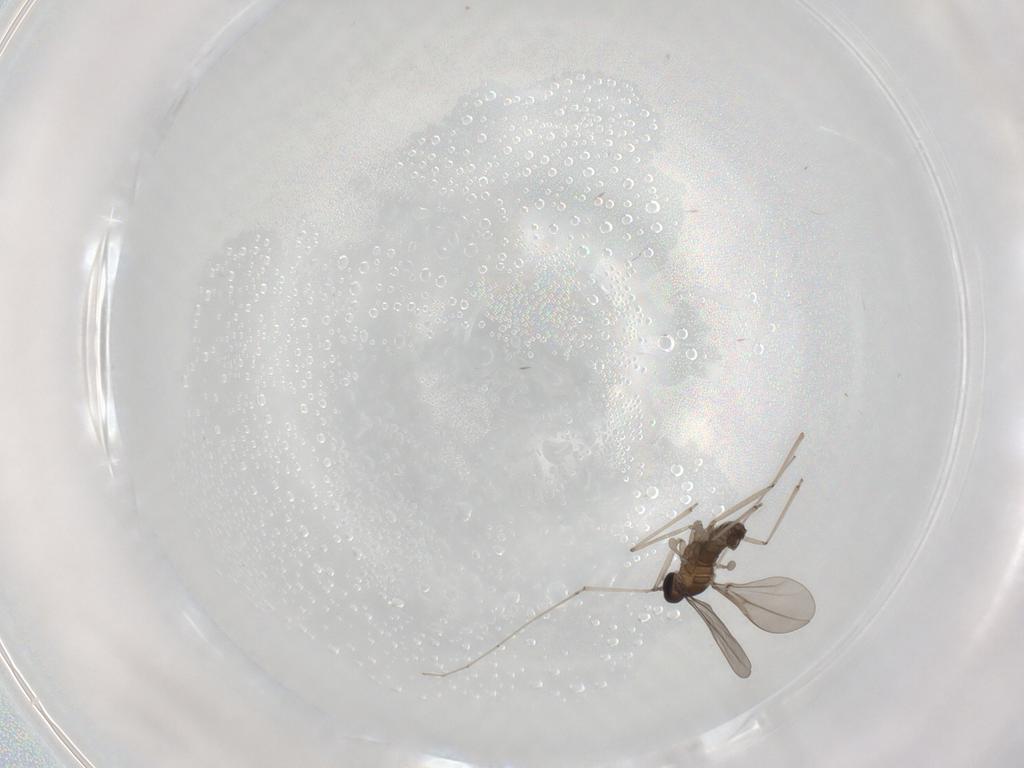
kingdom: Animalia
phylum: Arthropoda
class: Insecta
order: Diptera
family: Cecidomyiidae
